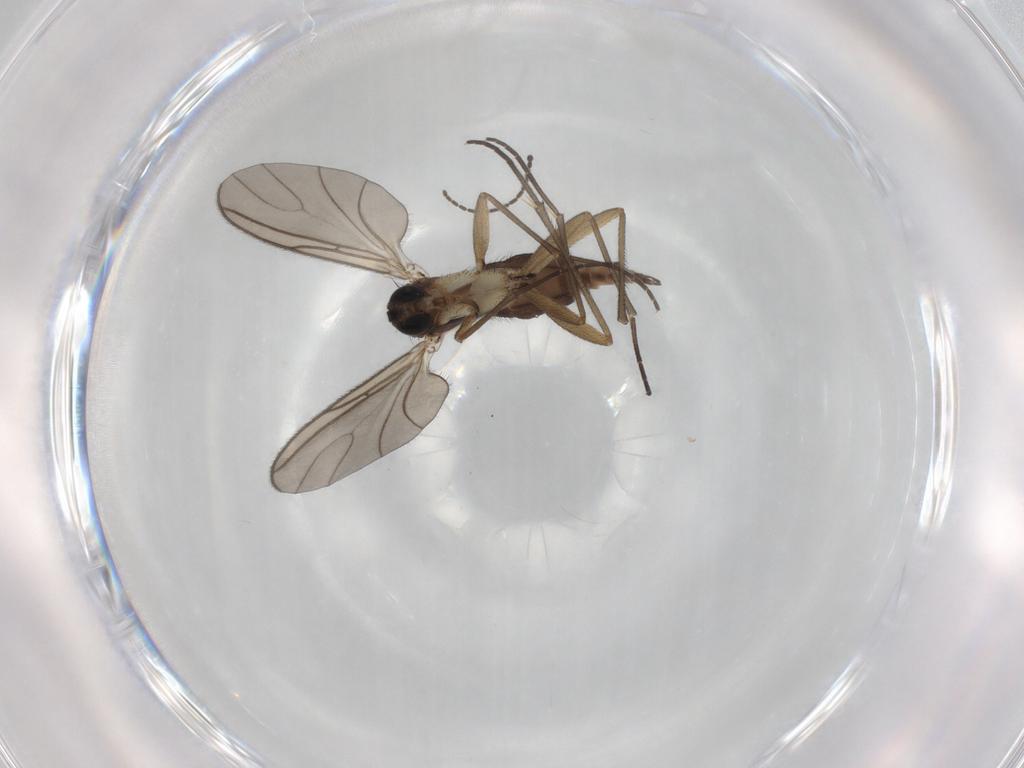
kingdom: Animalia
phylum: Arthropoda
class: Insecta
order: Diptera
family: Sciaridae
